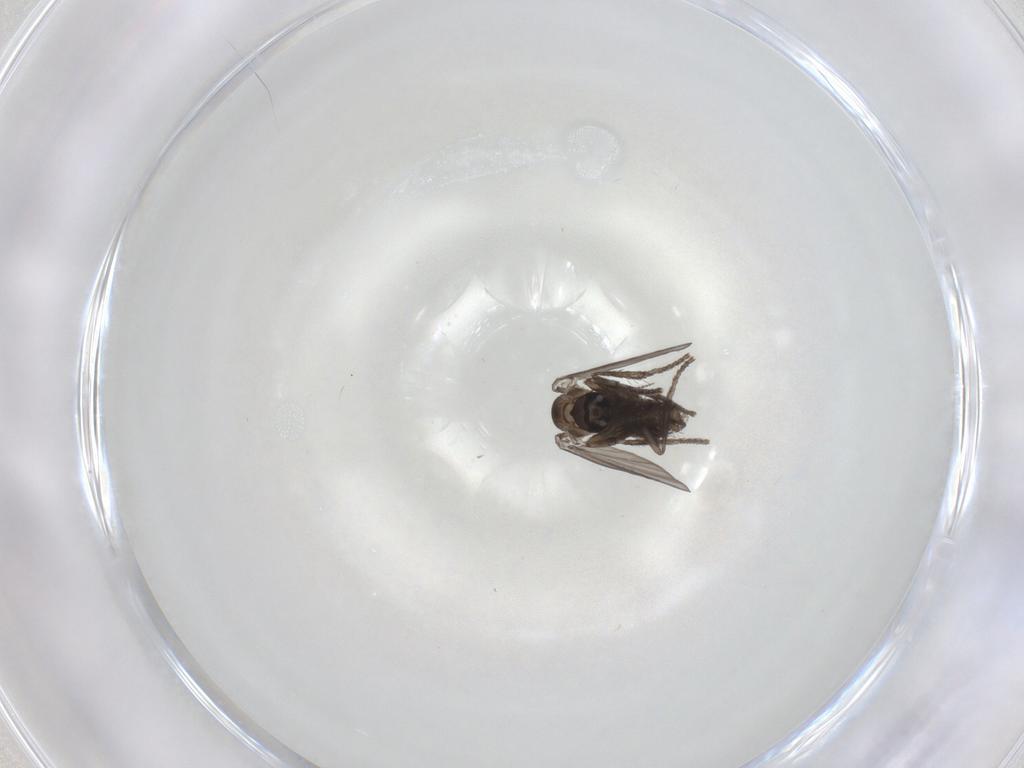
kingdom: Animalia
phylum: Arthropoda
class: Insecta
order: Diptera
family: Psychodidae
